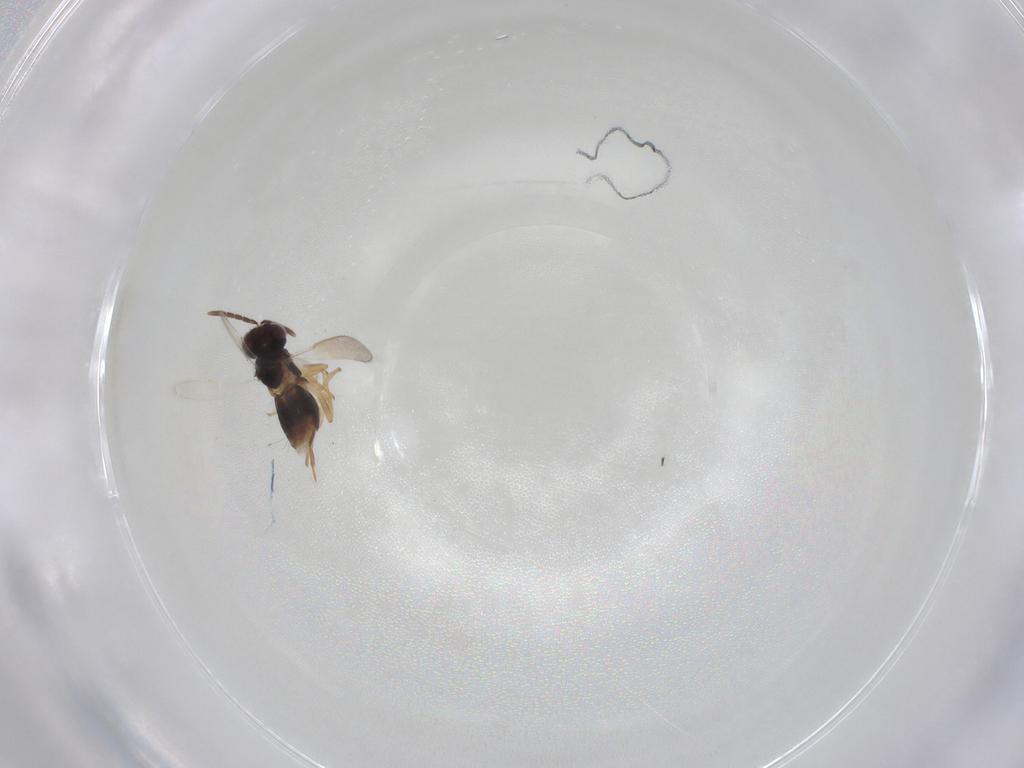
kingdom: Animalia
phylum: Arthropoda
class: Insecta
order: Hymenoptera
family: Aphelinidae
